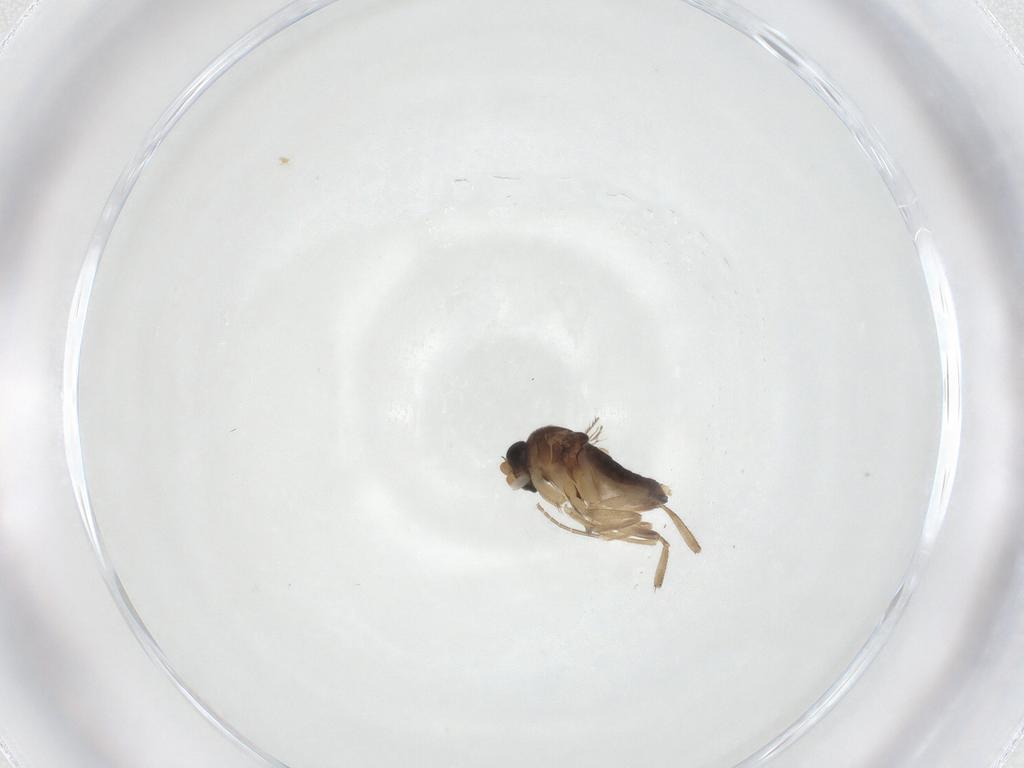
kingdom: Animalia
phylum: Arthropoda
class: Insecta
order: Diptera
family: Phoridae
